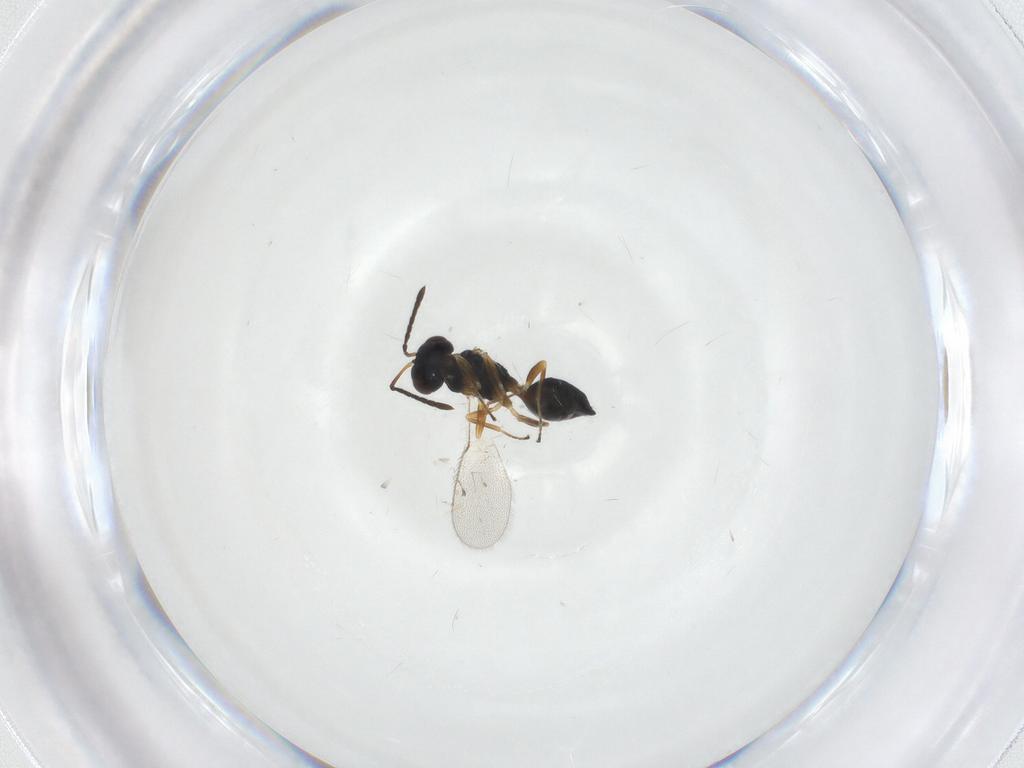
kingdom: Animalia
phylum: Arthropoda
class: Insecta
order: Hymenoptera
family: Pteromalidae
